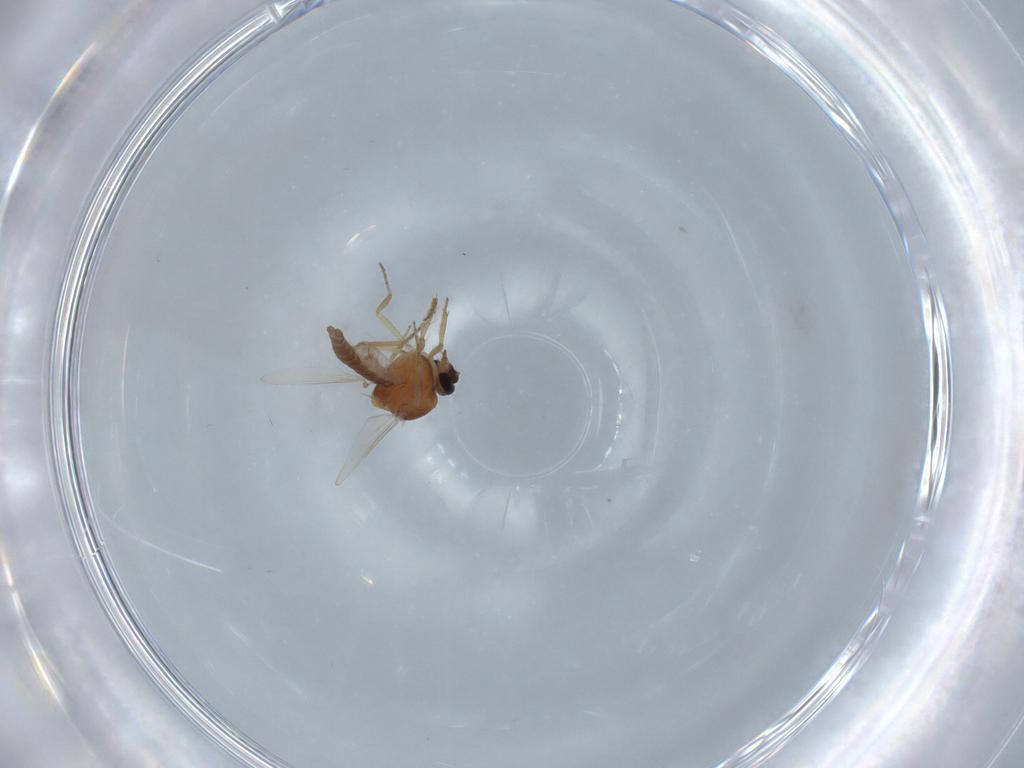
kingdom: Animalia
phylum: Arthropoda
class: Insecta
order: Diptera
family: Ceratopogonidae
